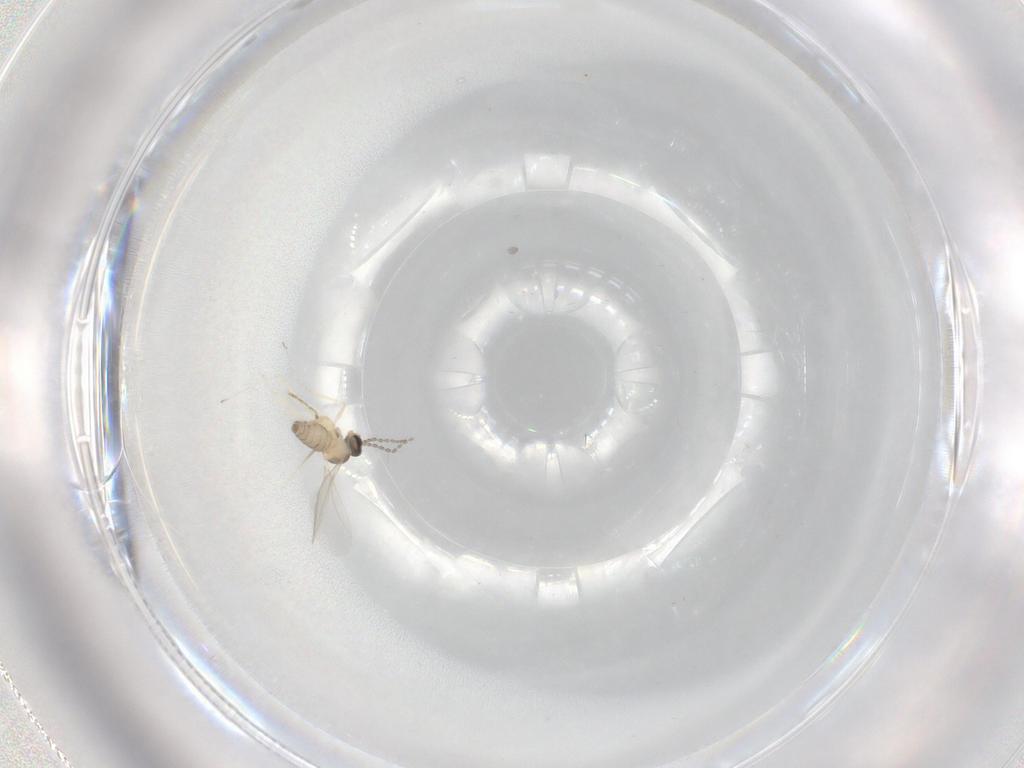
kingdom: Animalia
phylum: Arthropoda
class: Insecta
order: Diptera
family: Cecidomyiidae
